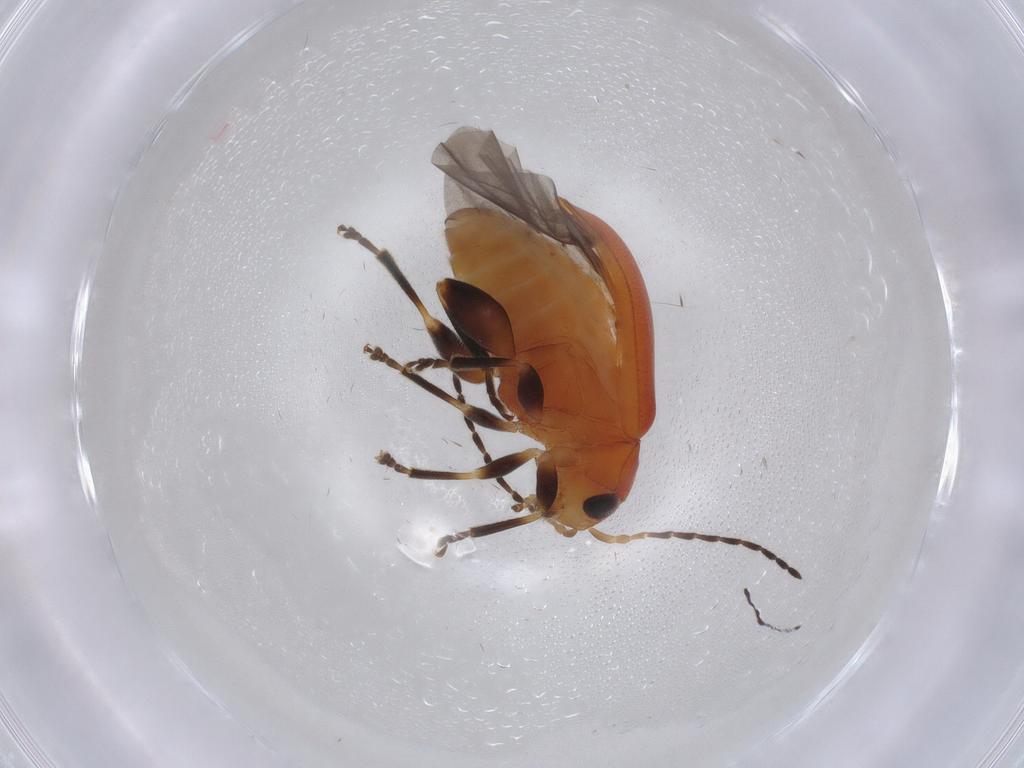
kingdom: Animalia
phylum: Arthropoda
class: Insecta
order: Coleoptera
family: Chrysomelidae
